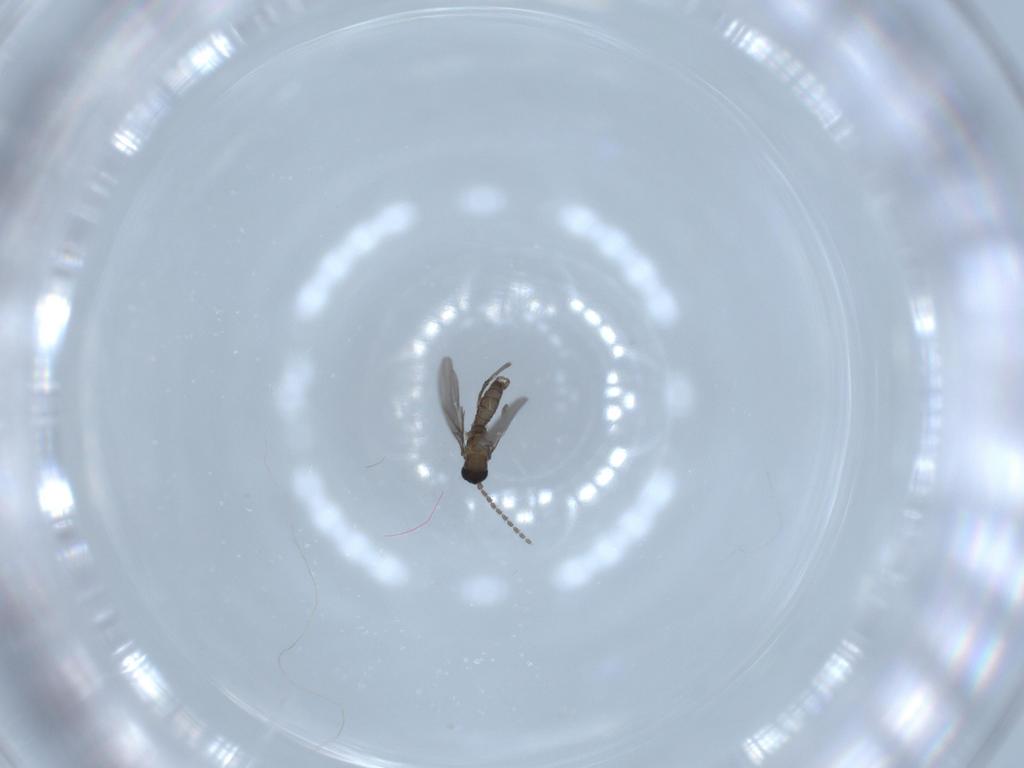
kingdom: Animalia
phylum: Arthropoda
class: Insecta
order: Diptera
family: Sciaridae
